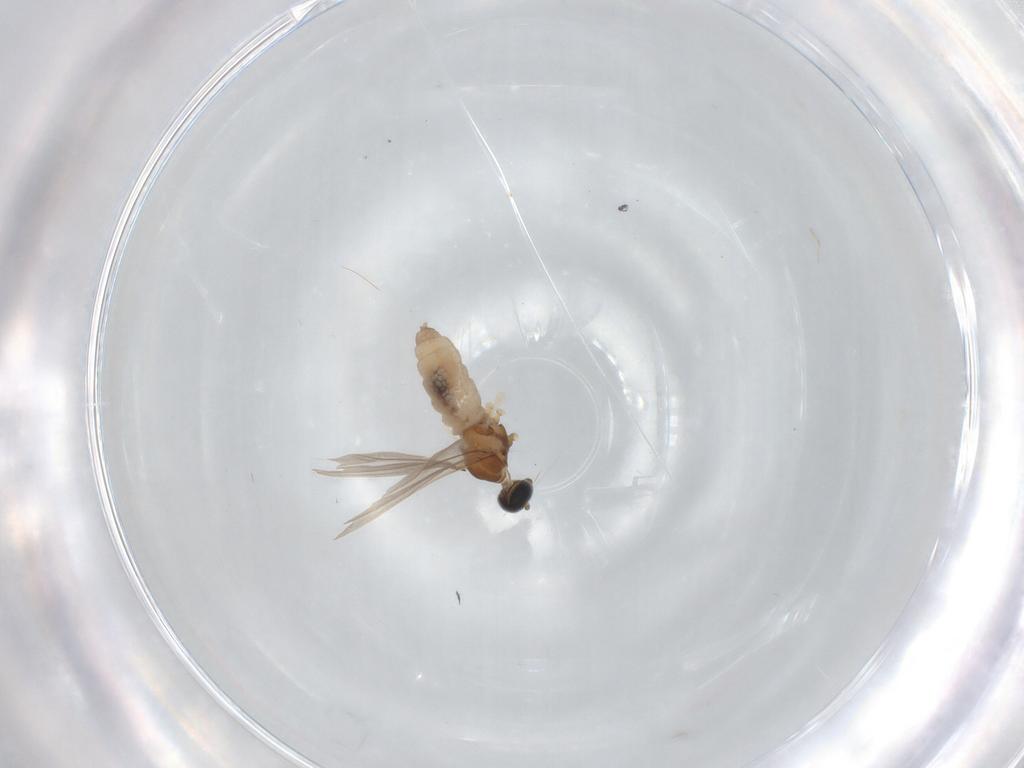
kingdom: Animalia
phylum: Arthropoda
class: Insecta
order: Diptera
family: Cecidomyiidae
